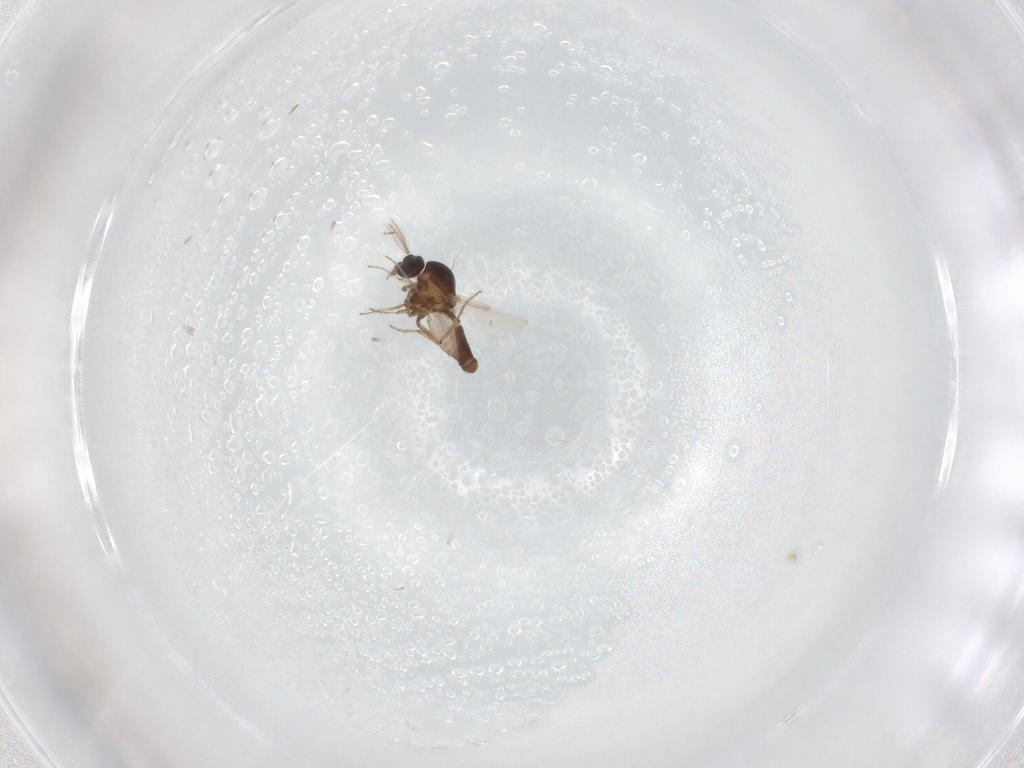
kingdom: Animalia
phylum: Arthropoda
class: Insecta
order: Diptera
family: Ceratopogonidae
